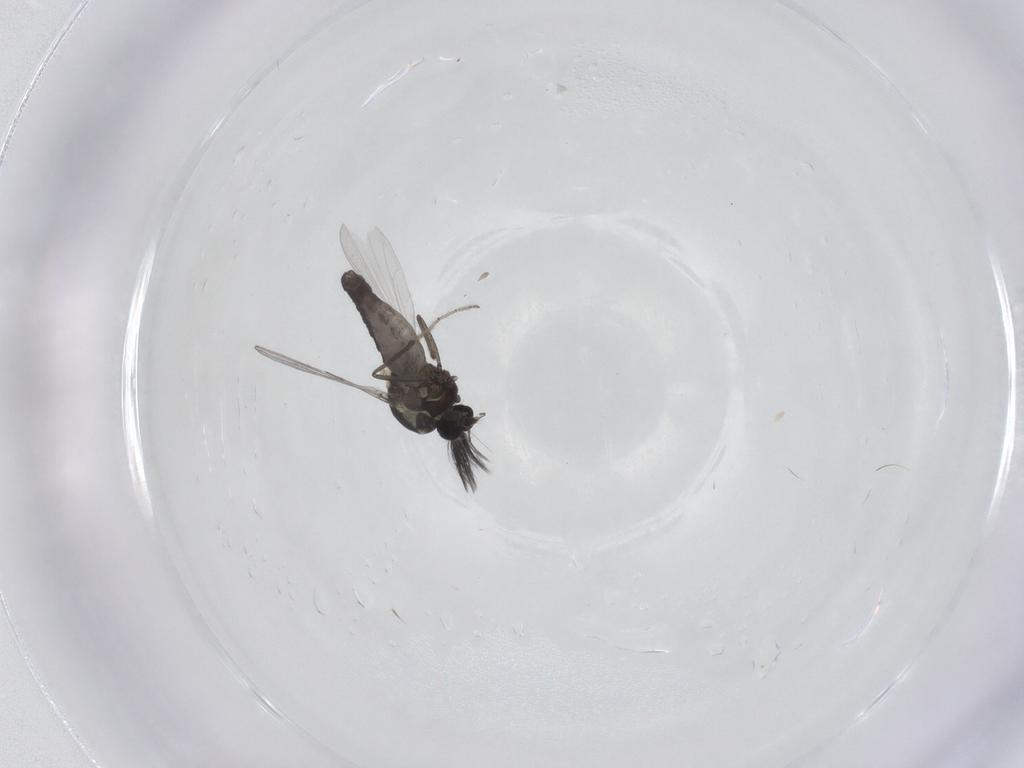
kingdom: Animalia
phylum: Arthropoda
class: Insecta
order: Diptera
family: Ceratopogonidae
